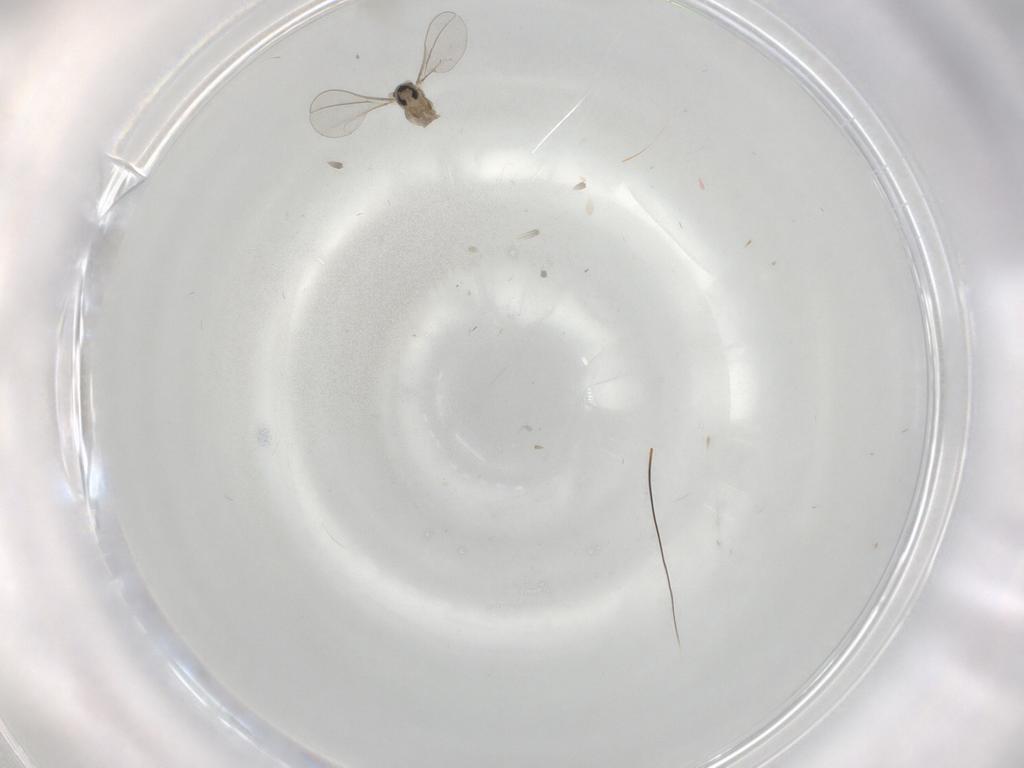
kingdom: Animalia
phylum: Arthropoda
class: Insecta
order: Diptera
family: Cecidomyiidae
